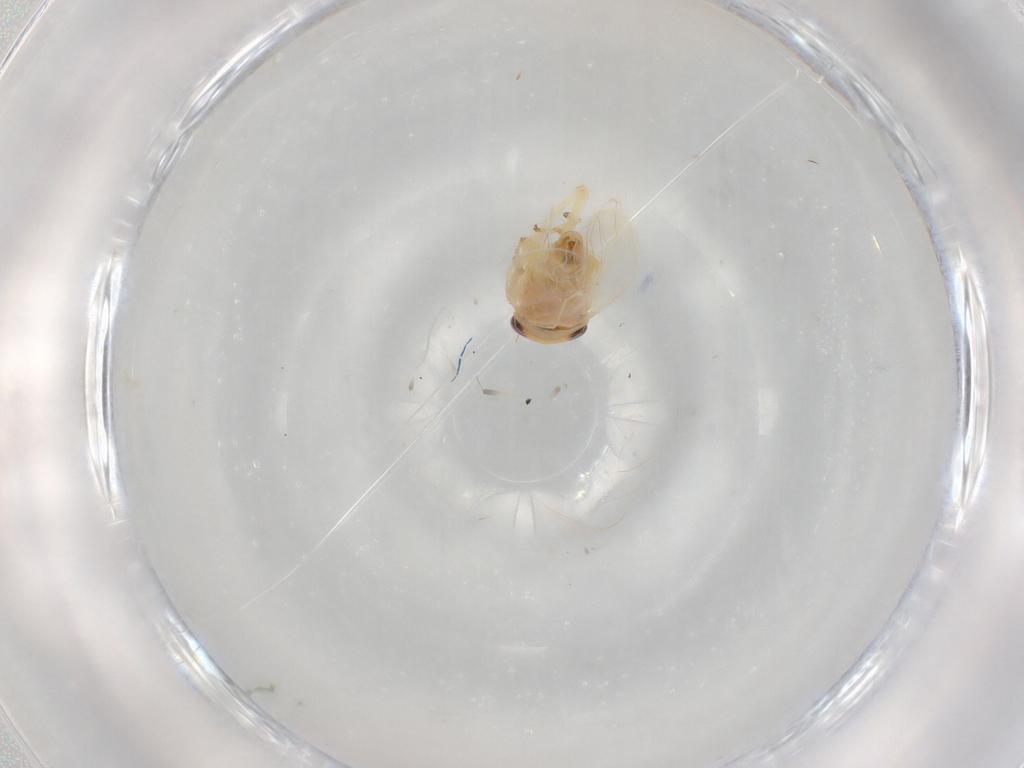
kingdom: Animalia
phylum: Arthropoda
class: Insecta
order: Hemiptera
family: Cicadellidae
